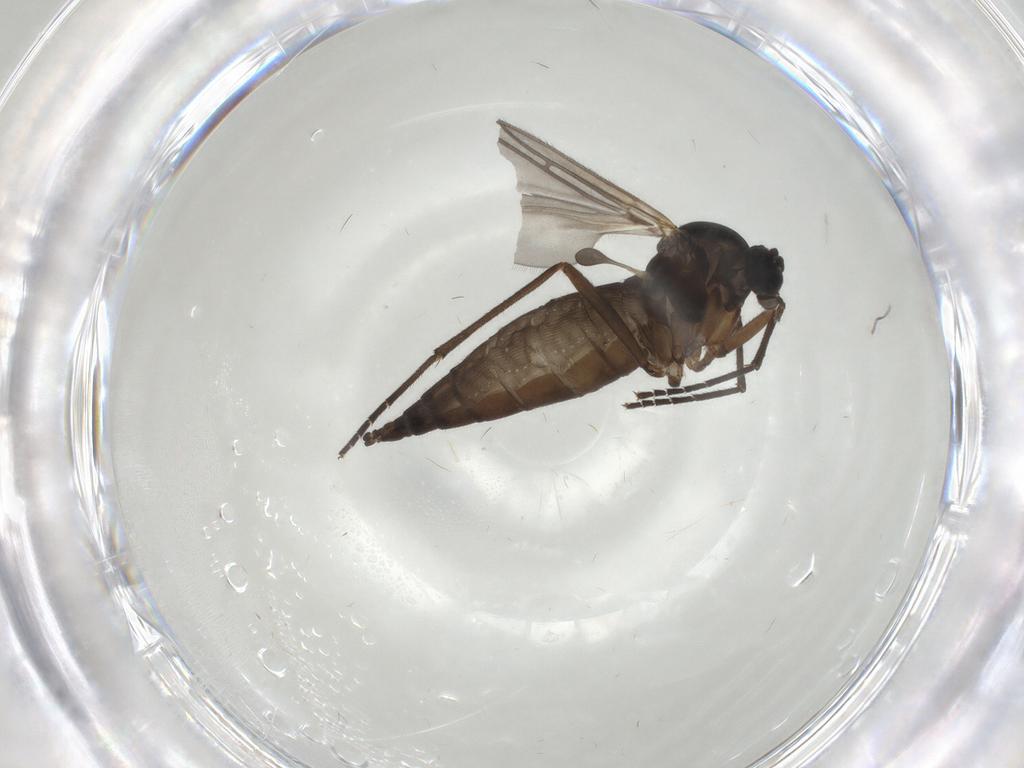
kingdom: Animalia
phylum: Arthropoda
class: Insecta
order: Diptera
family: Sciaridae
